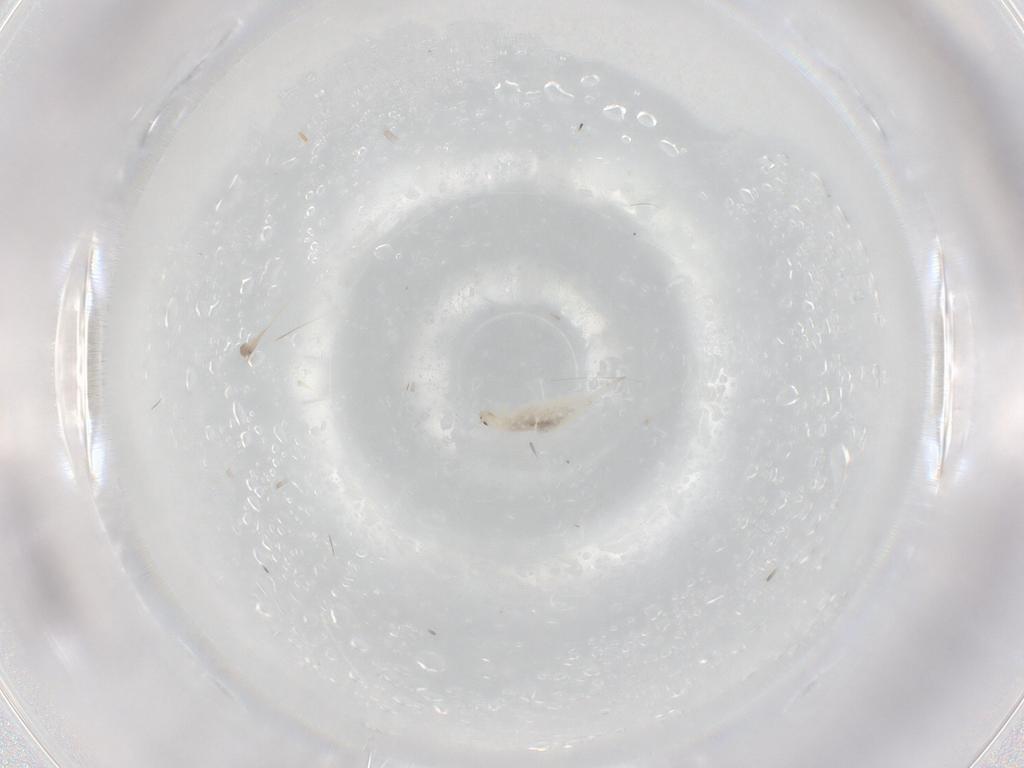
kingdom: Animalia
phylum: Arthropoda
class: Collembola
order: Entomobryomorpha
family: Entomobryidae
